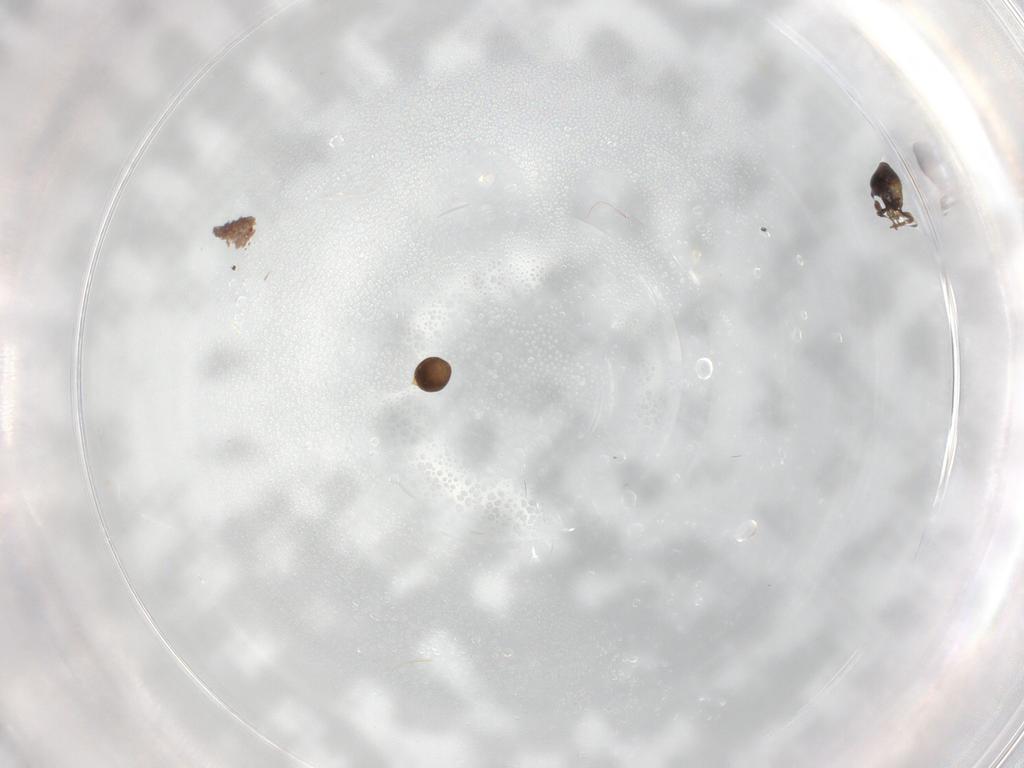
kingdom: Animalia
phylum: Arthropoda
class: Insecta
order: Hymenoptera
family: Scelionidae
